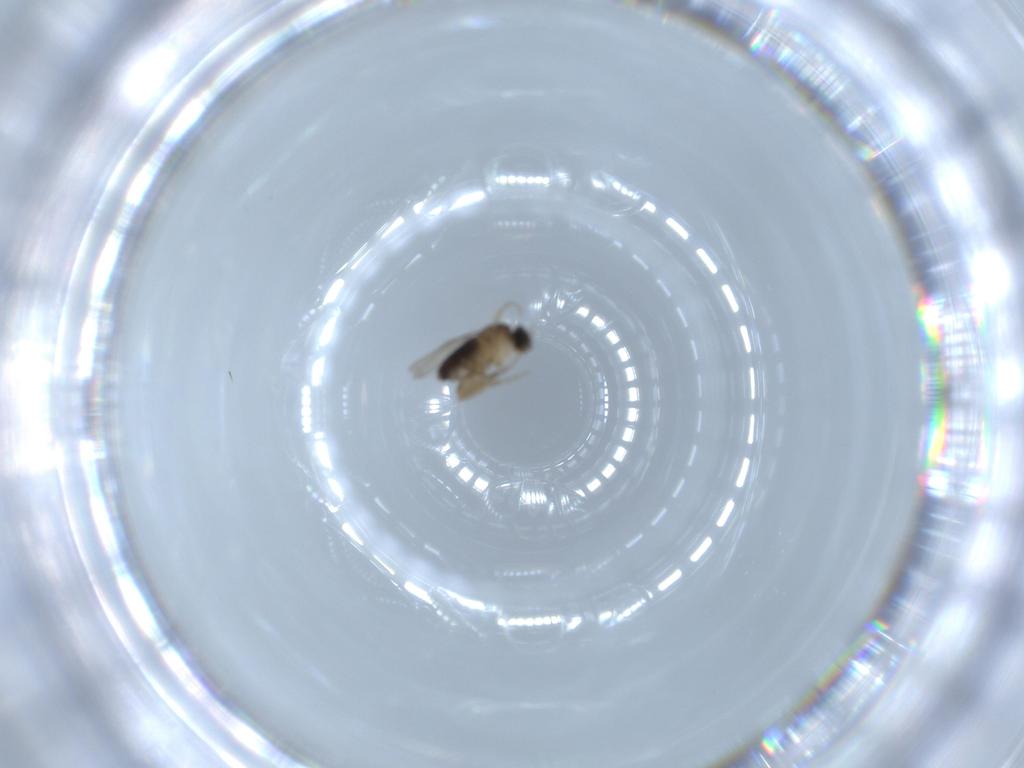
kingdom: Animalia
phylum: Arthropoda
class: Insecta
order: Diptera
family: Phoridae
